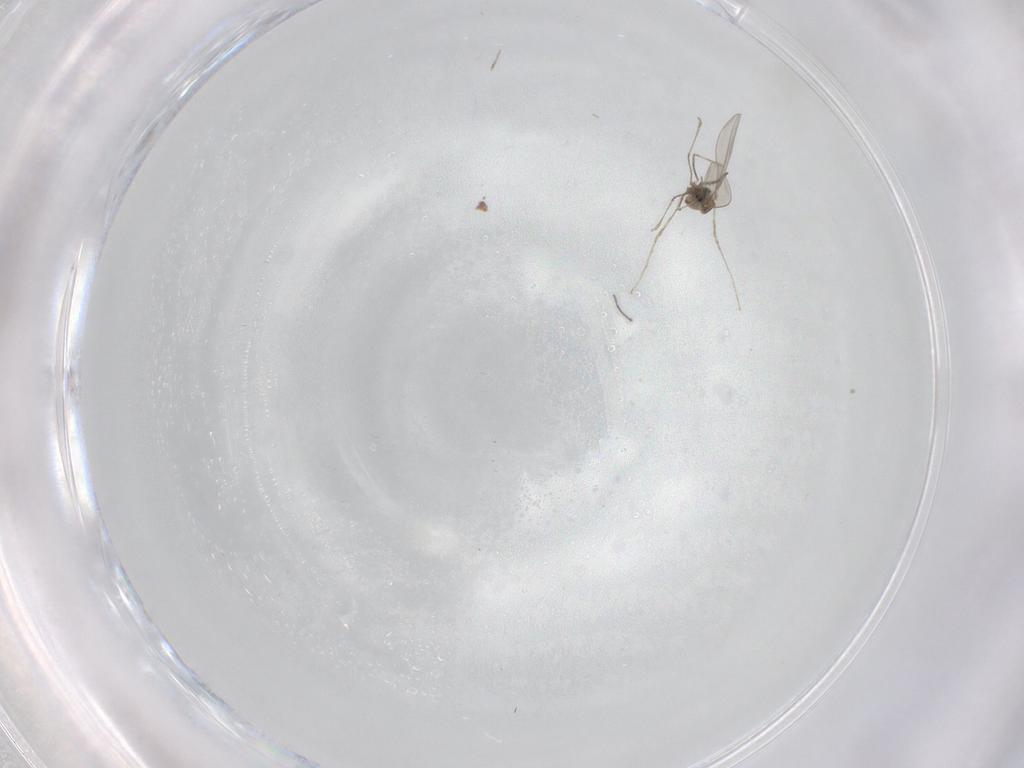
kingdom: Animalia
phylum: Arthropoda
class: Insecta
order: Diptera
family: Cecidomyiidae
